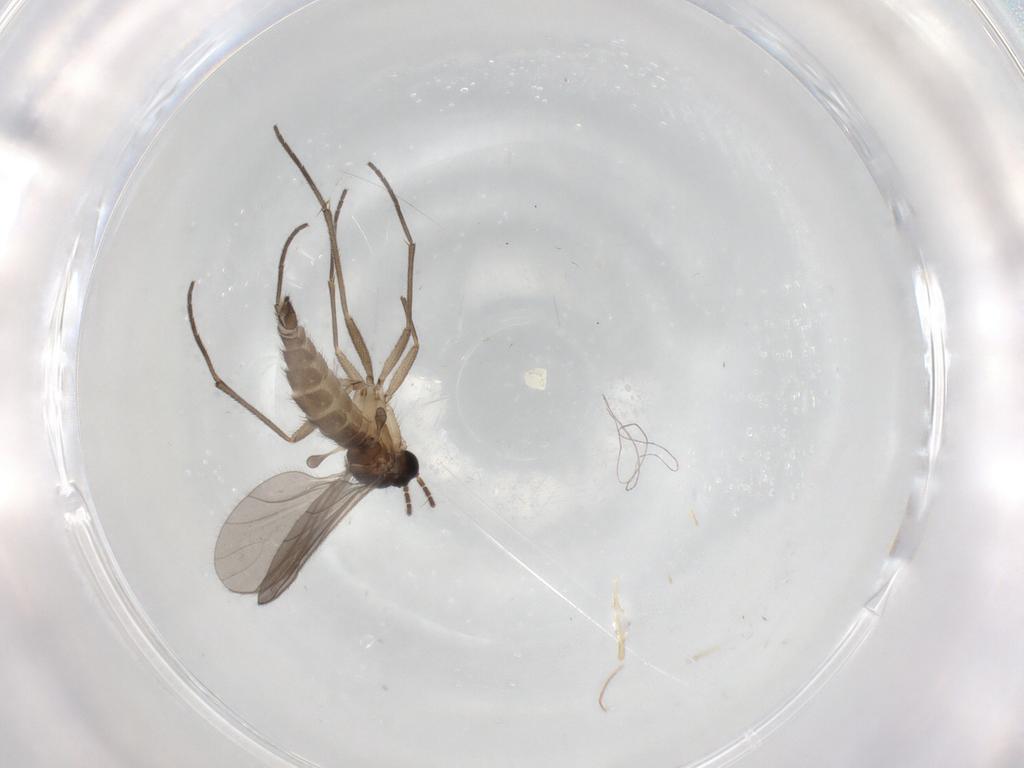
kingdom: Animalia
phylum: Arthropoda
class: Insecta
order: Diptera
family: Sciaridae
